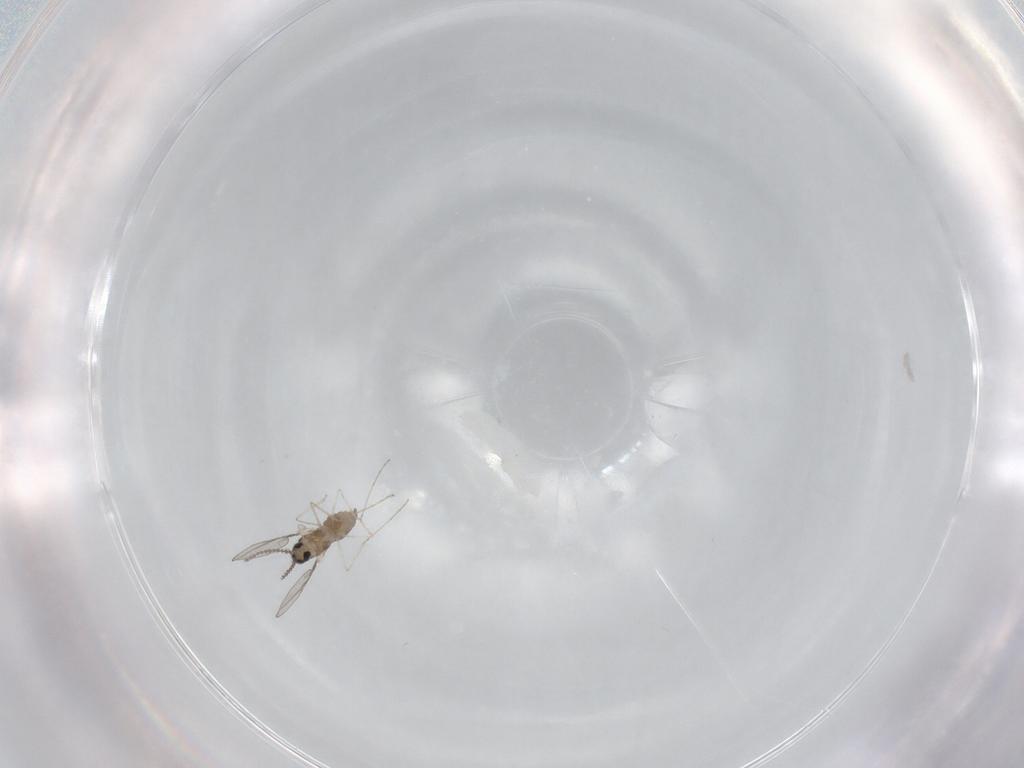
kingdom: Animalia
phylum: Arthropoda
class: Insecta
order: Diptera
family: Cecidomyiidae
